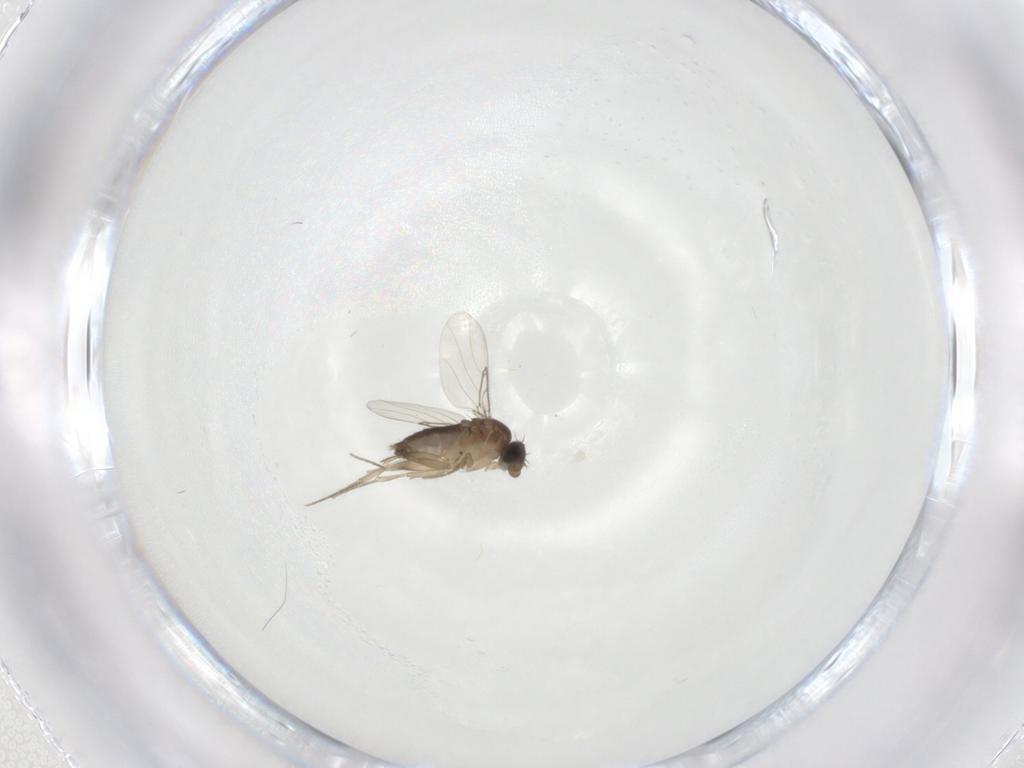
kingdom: Animalia
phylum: Arthropoda
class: Insecta
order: Diptera
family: Phoridae
